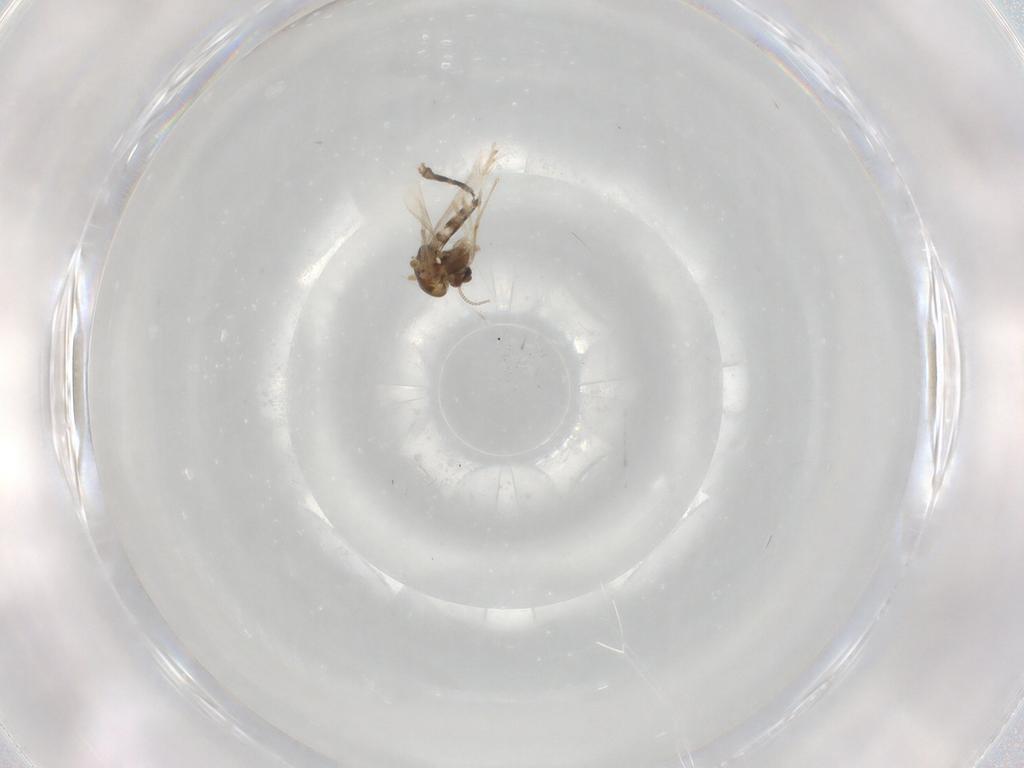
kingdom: Animalia
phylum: Arthropoda
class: Insecta
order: Diptera
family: Chironomidae
